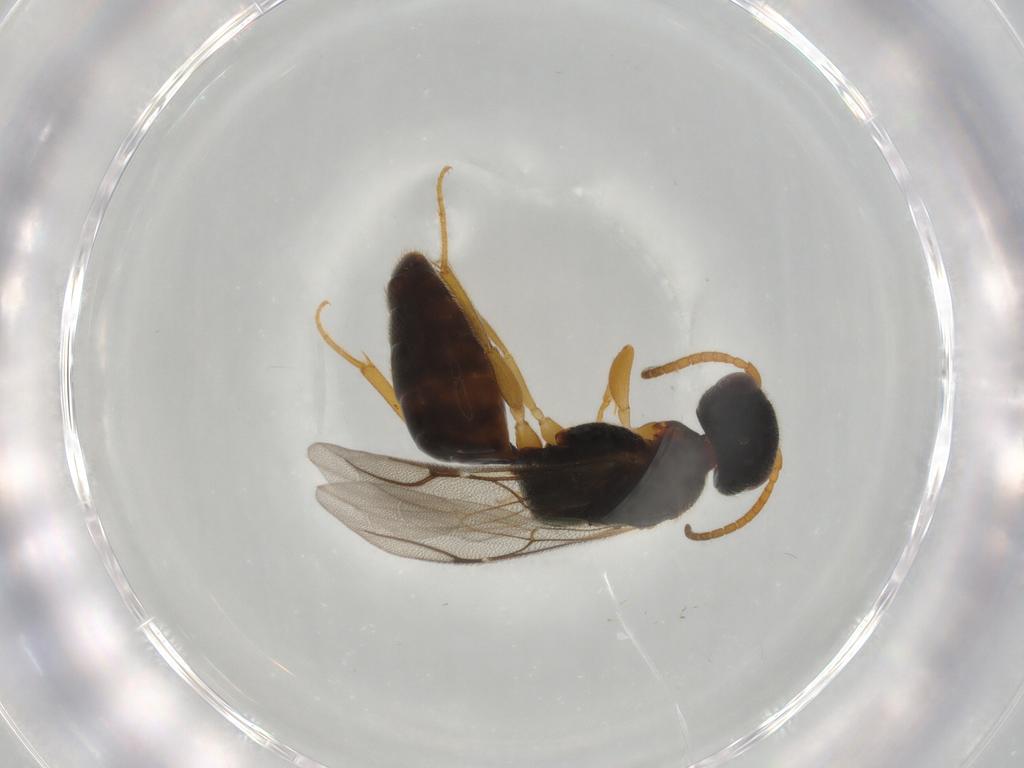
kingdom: Animalia
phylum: Arthropoda
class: Insecta
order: Hymenoptera
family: Bethylidae
